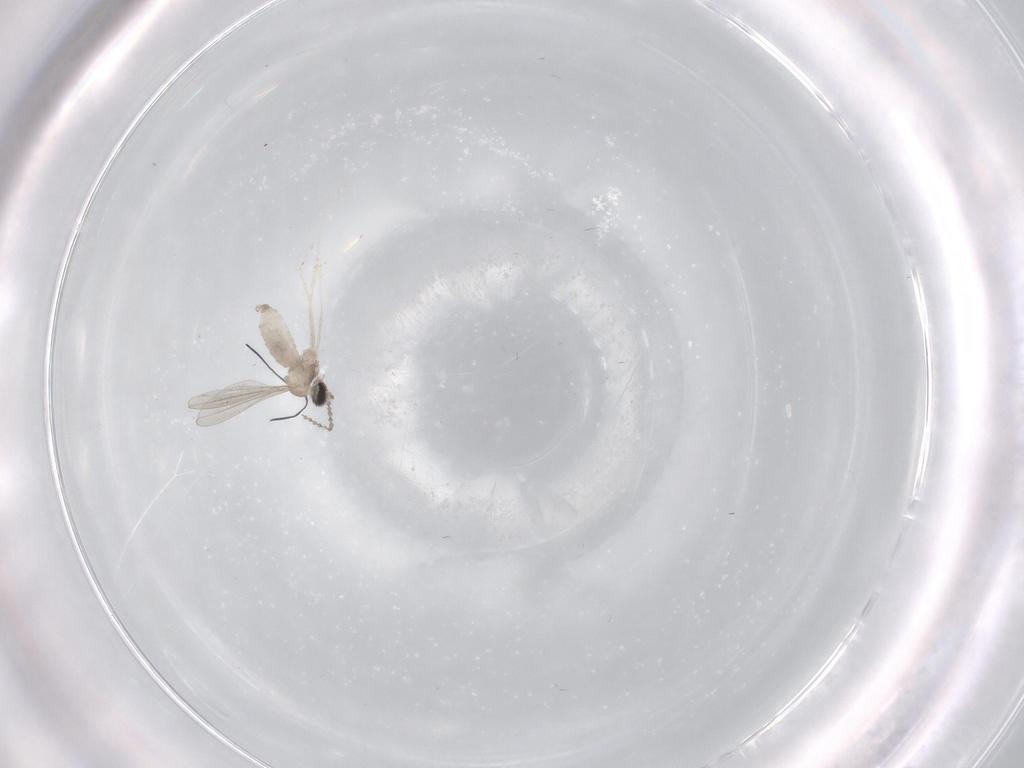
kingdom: Animalia
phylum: Arthropoda
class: Insecta
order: Diptera
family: Cecidomyiidae
